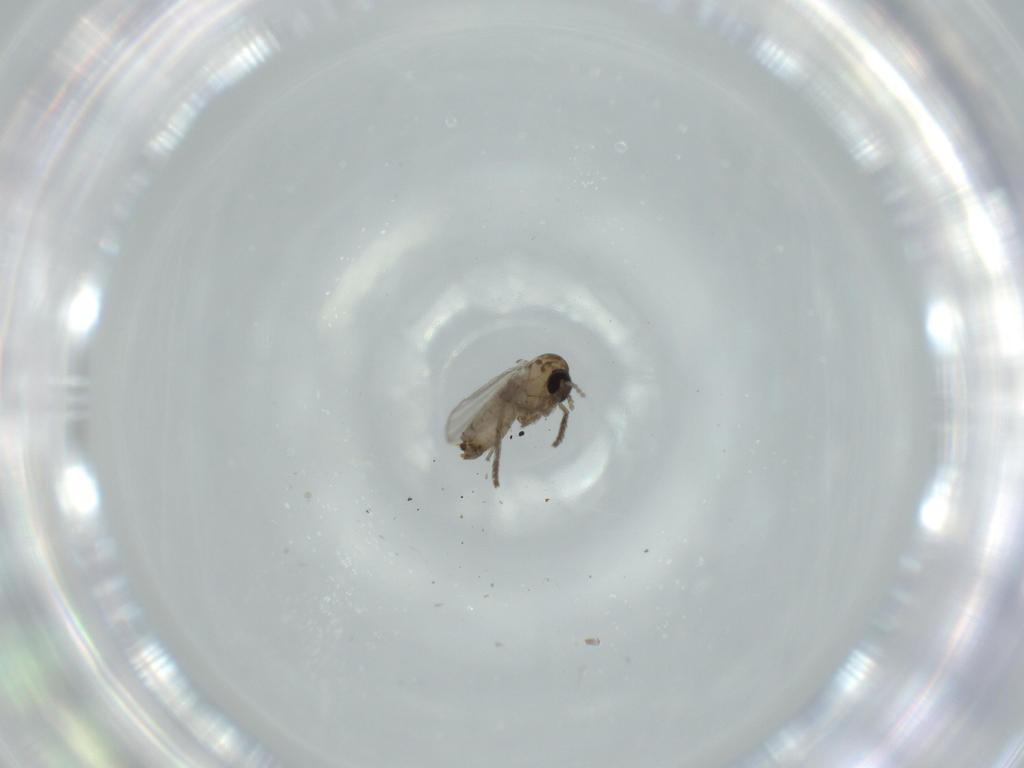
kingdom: Animalia
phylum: Arthropoda
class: Insecta
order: Diptera
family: Psychodidae
